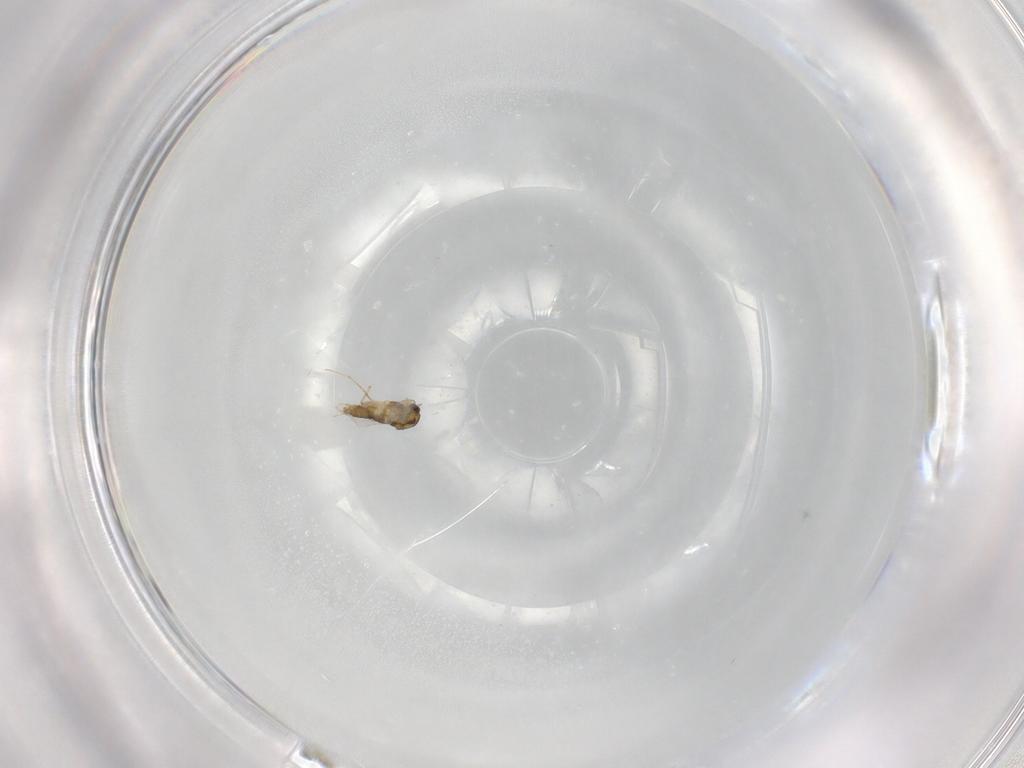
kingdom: Animalia
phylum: Arthropoda
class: Insecta
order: Diptera
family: Chironomidae
